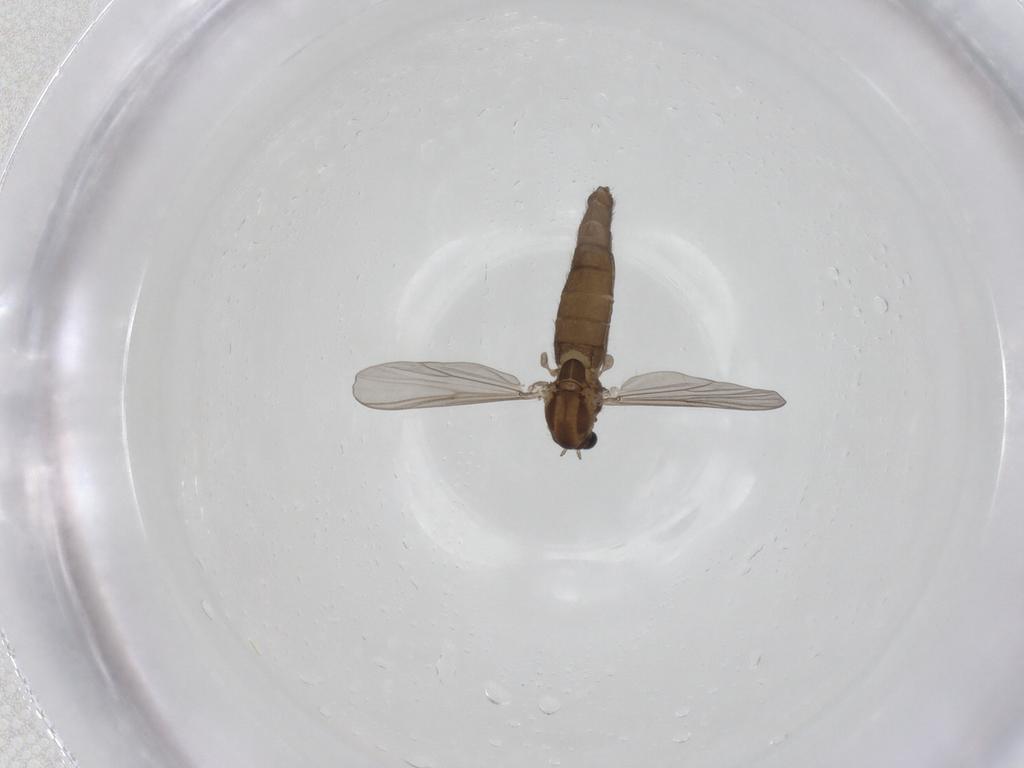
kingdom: Animalia
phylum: Arthropoda
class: Insecta
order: Diptera
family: Chironomidae
